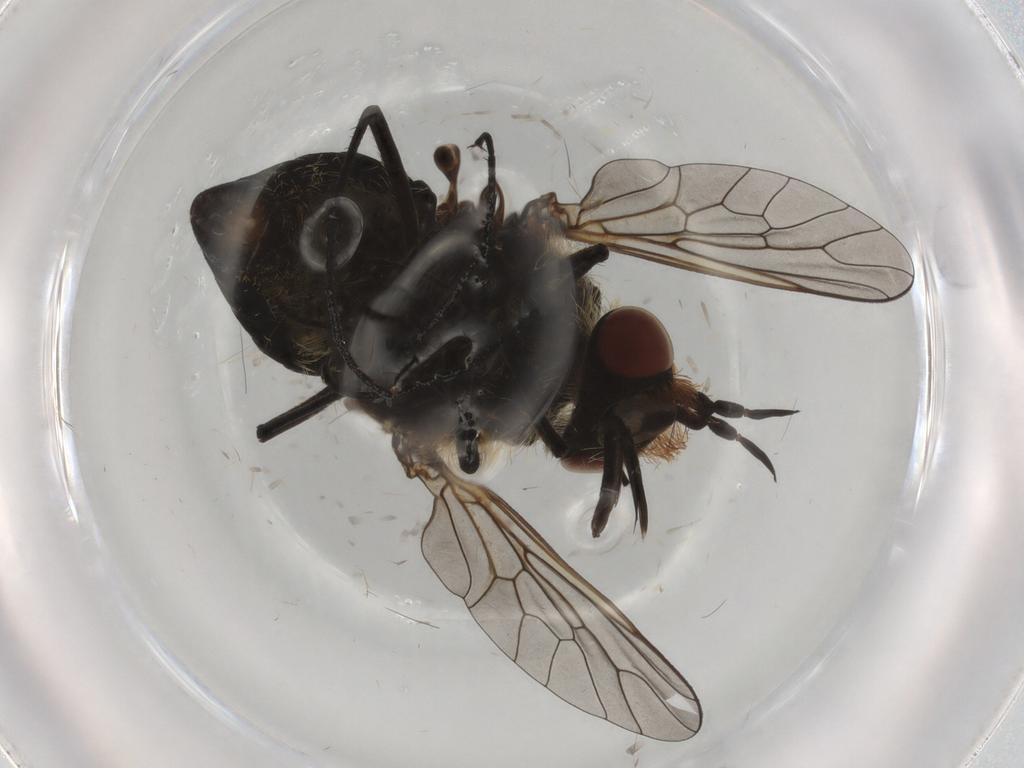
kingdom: Animalia
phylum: Arthropoda
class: Insecta
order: Diptera
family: Bombyliidae
